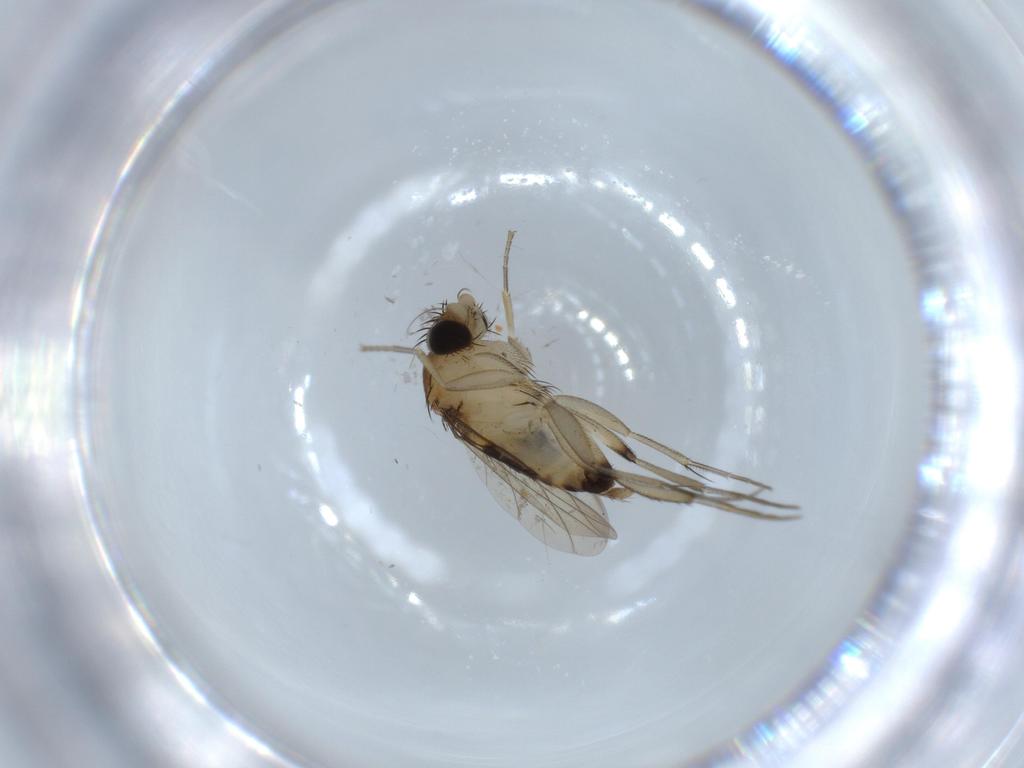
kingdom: Animalia
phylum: Arthropoda
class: Insecta
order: Diptera
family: Phoridae
